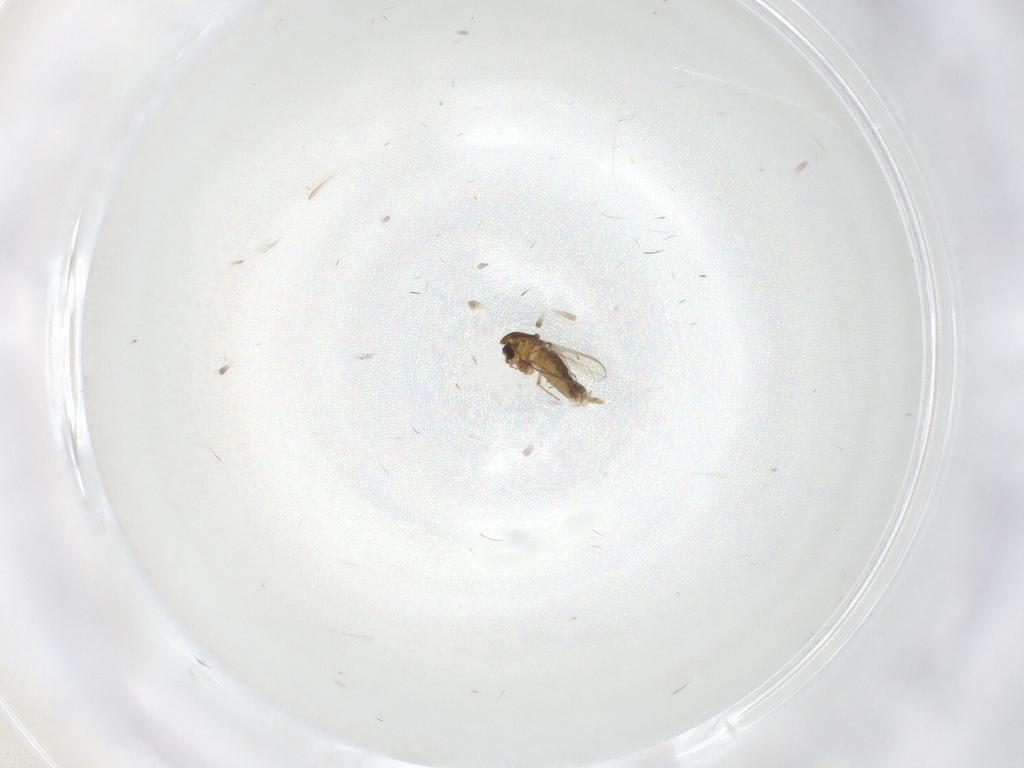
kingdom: Animalia
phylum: Arthropoda
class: Insecta
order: Diptera
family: Chironomidae
